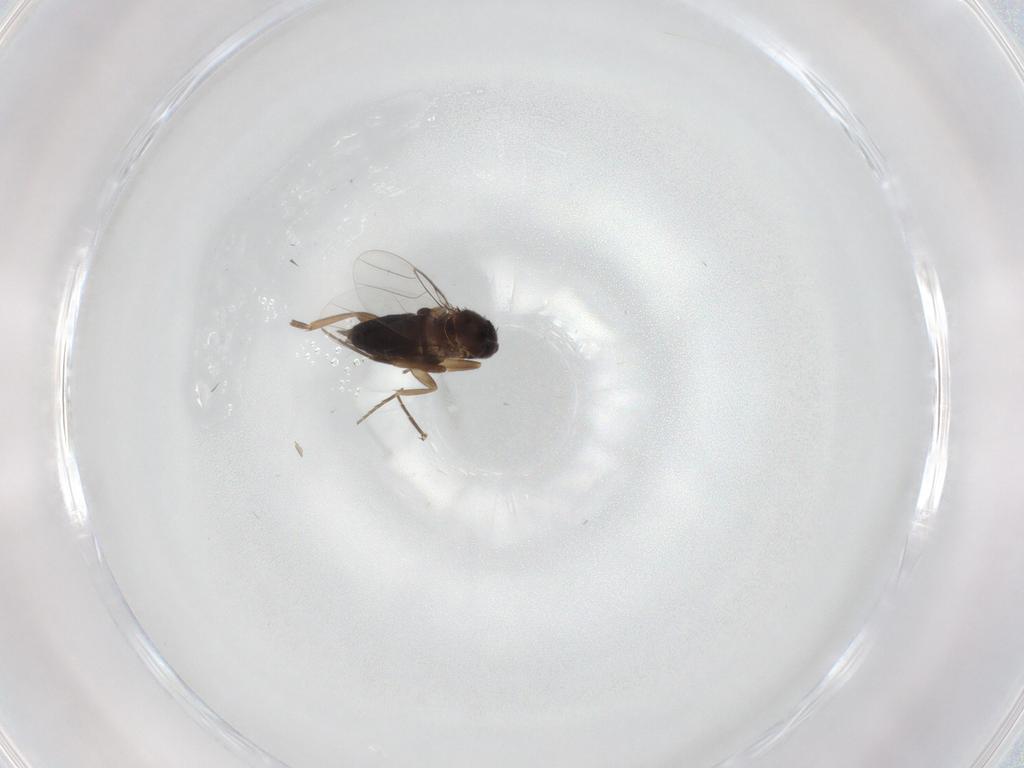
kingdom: Animalia
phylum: Arthropoda
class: Insecta
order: Diptera
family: Phoridae
